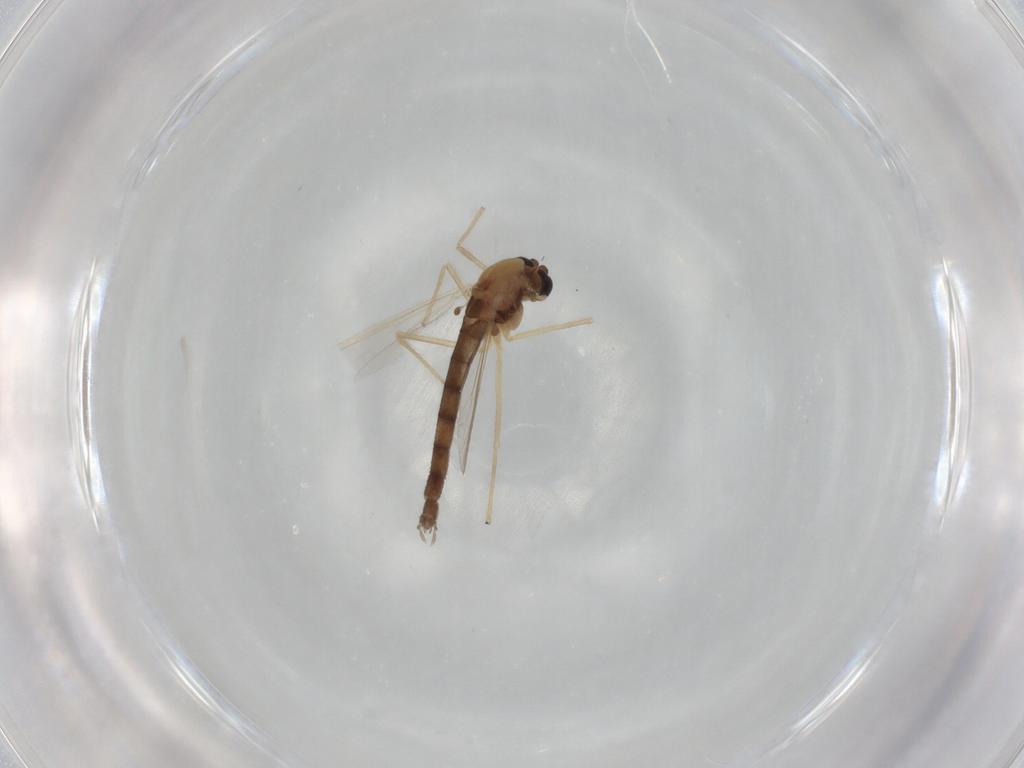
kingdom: Animalia
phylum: Arthropoda
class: Insecta
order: Diptera
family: Chironomidae
